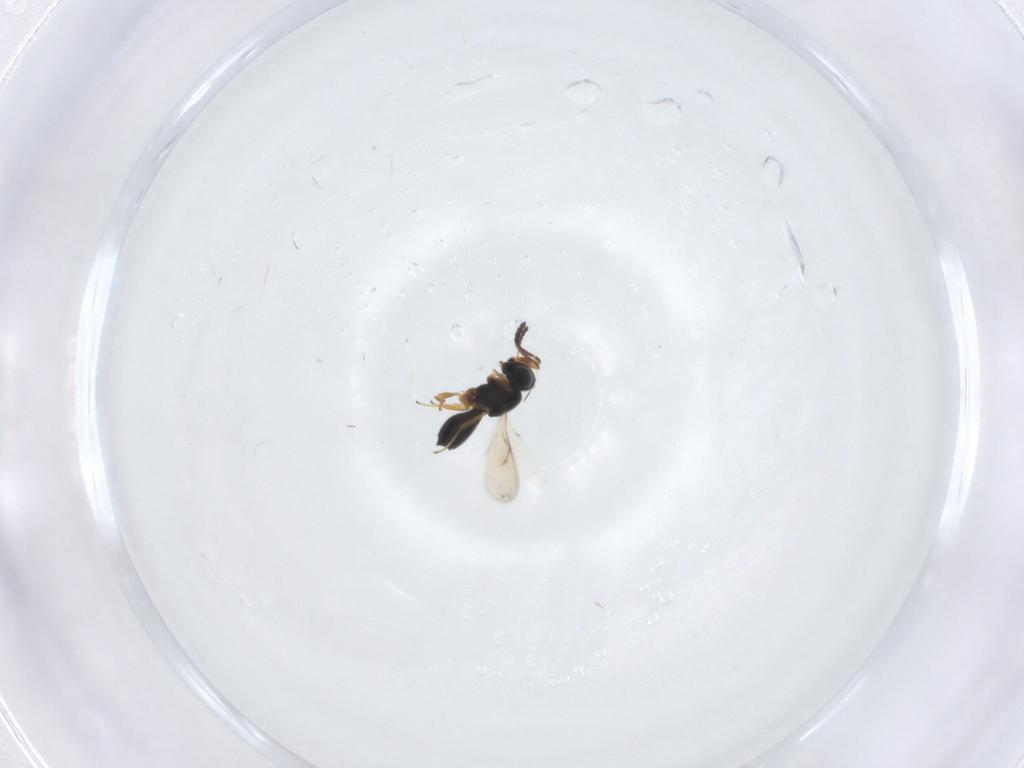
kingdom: Animalia
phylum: Arthropoda
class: Insecta
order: Hymenoptera
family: Scelionidae
